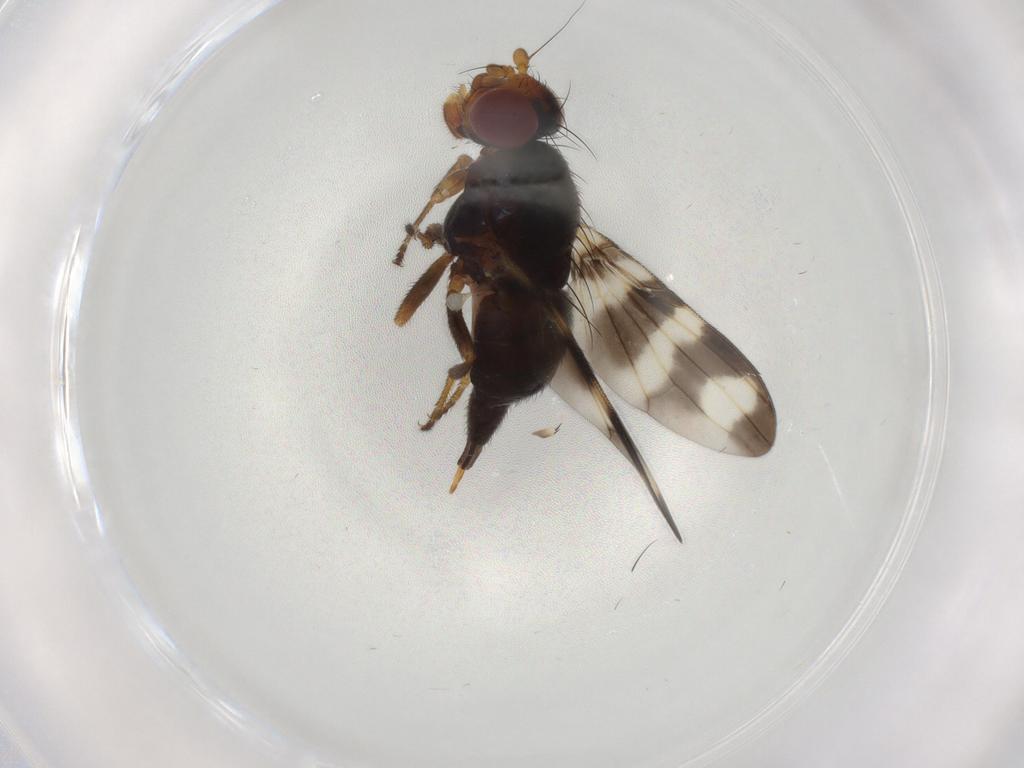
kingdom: Animalia
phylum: Arthropoda
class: Insecta
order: Diptera
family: Ulidiidae
